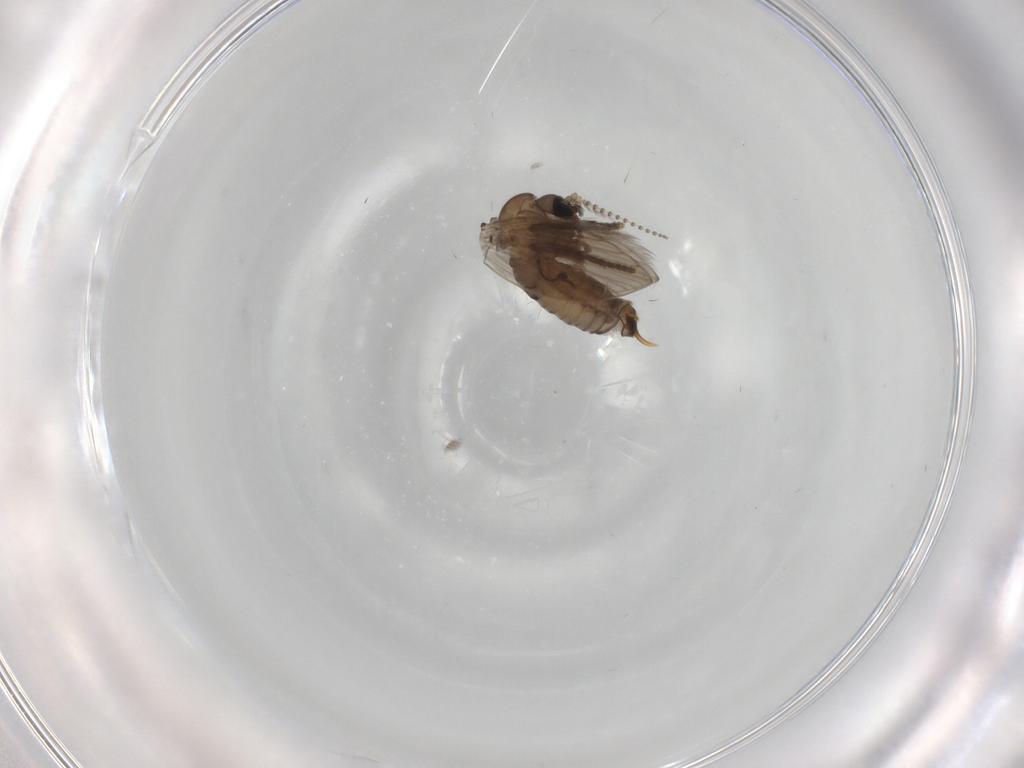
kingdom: Animalia
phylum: Arthropoda
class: Insecta
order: Diptera
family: Psychodidae
